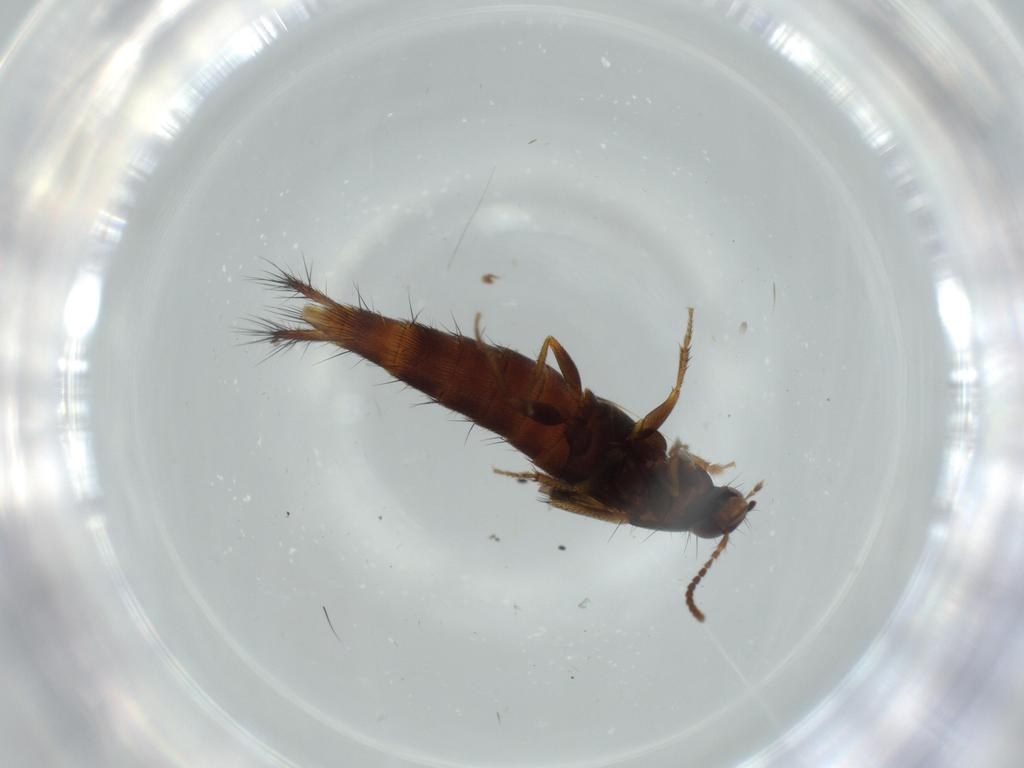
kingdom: Animalia
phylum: Arthropoda
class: Insecta
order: Coleoptera
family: Staphylinidae
